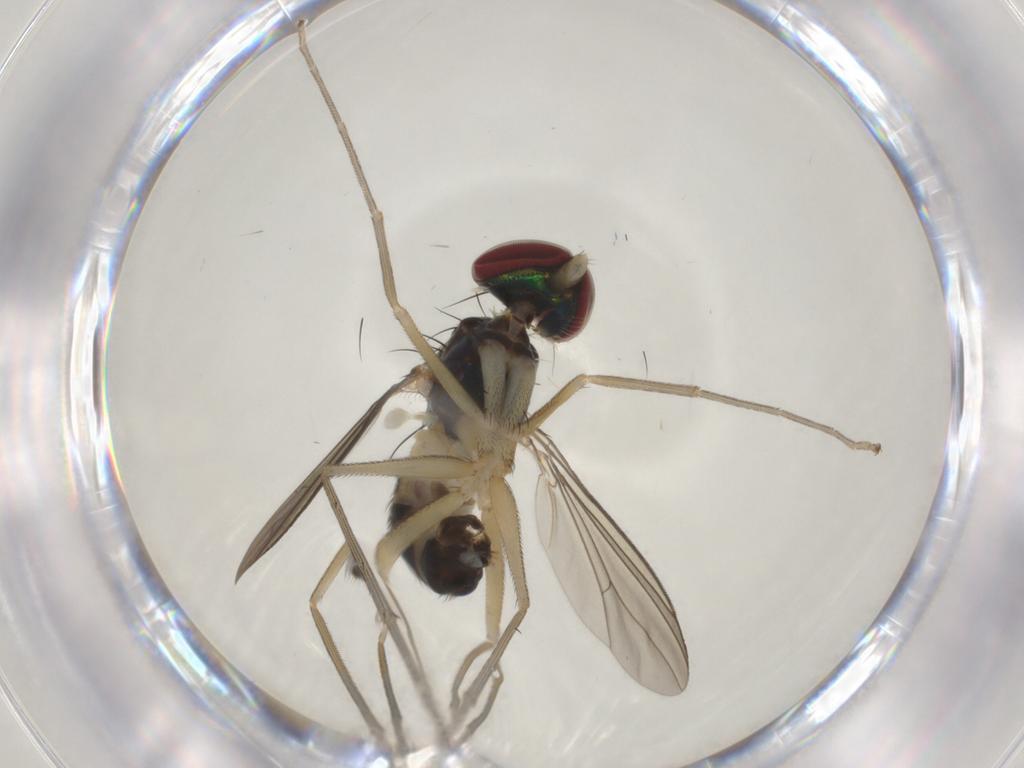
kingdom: Animalia
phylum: Arthropoda
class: Insecta
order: Diptera
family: Dolichopodidae
